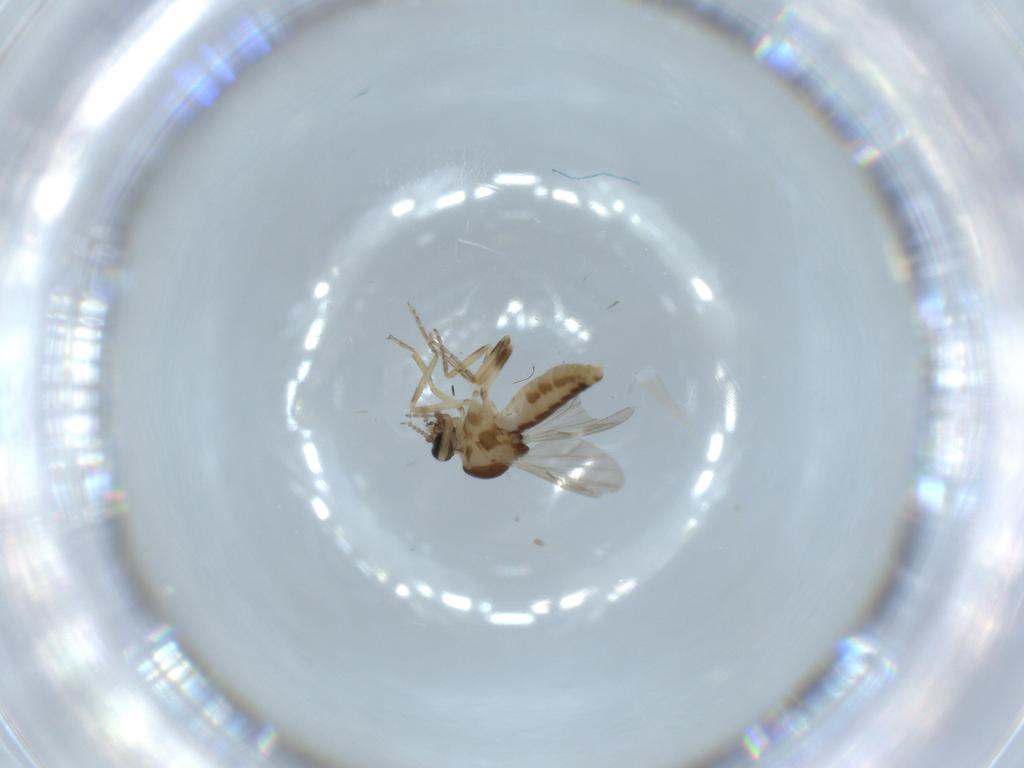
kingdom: Animalia
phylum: Arthropoda
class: Insecta
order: Diptera
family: Ceratopogonidae
